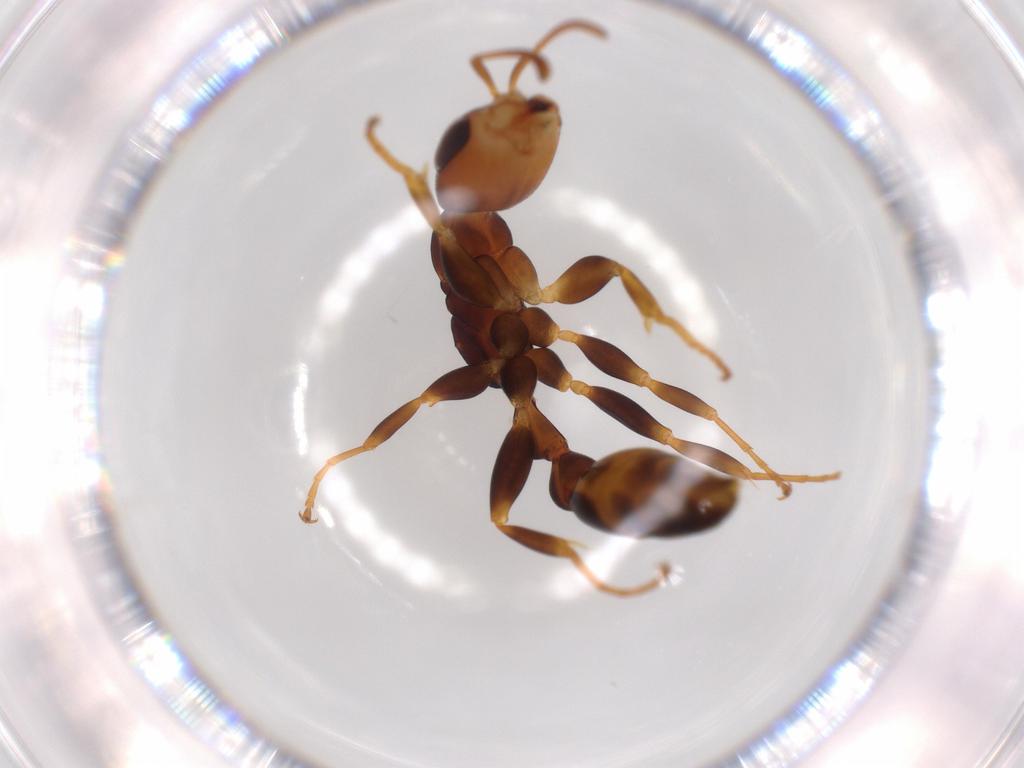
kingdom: Animalia
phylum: Arthropoda
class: Insecta
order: Hymenoptera
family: Formicidae
